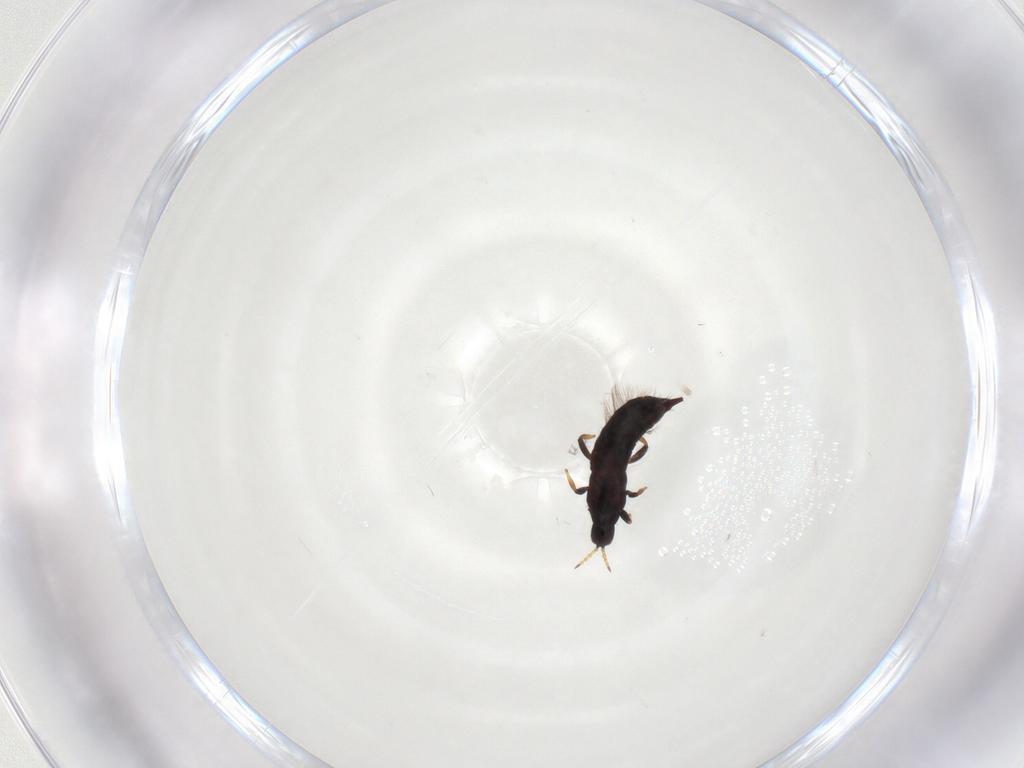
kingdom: Animalia
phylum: Arthropoda
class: Insecta
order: Thysanoptera
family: Phlaeothripidae
